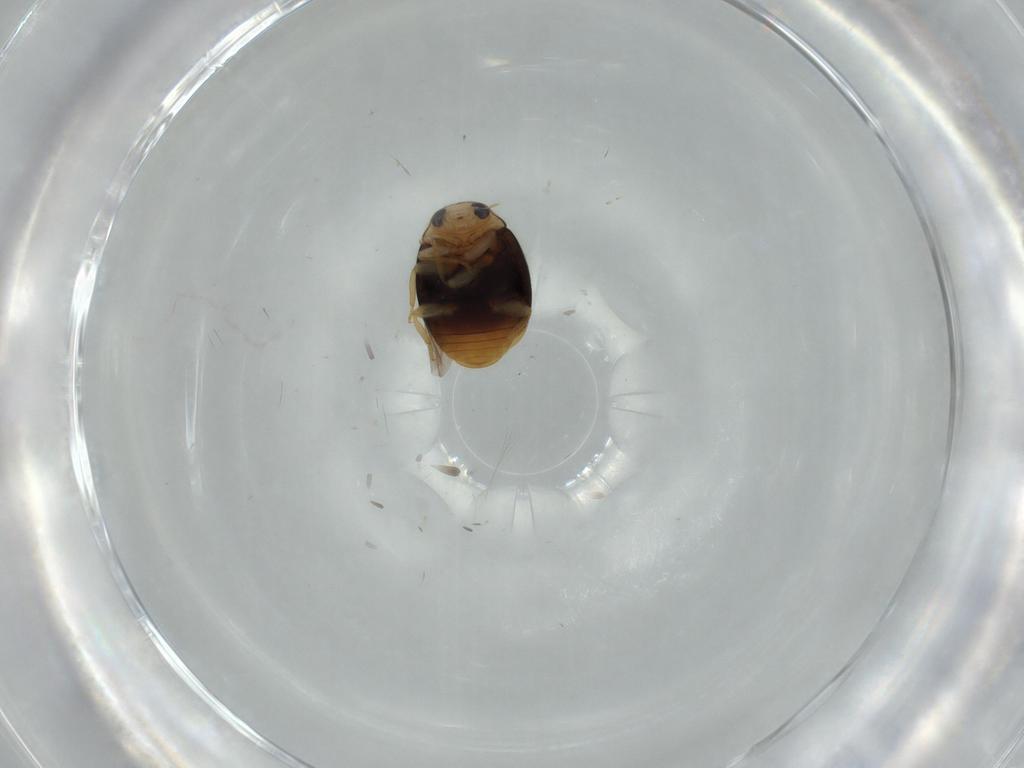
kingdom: Animalia
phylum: Arthropoda
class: Insecta
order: Coleoptera
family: Coccinellidae
